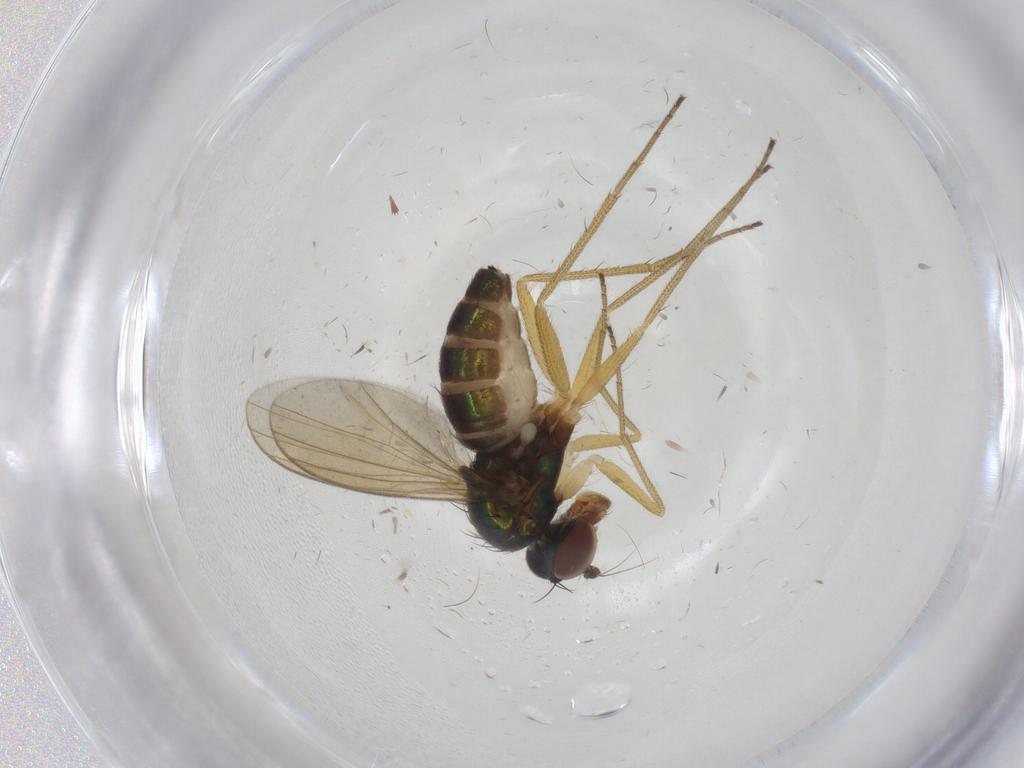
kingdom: Animalia
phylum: Arthropoda
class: Insecta
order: Diptera
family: Dolichopodidae
